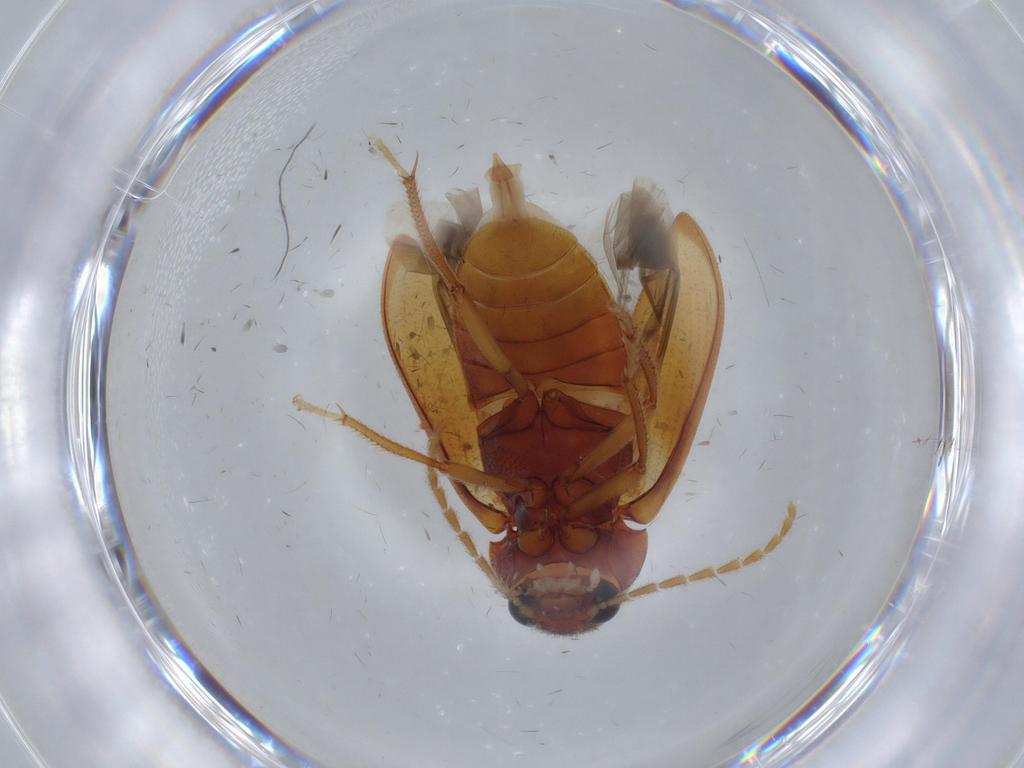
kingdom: Animalia
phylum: Arthropoda
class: Insecta
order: Coleoptera
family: Ptilodactylidae
